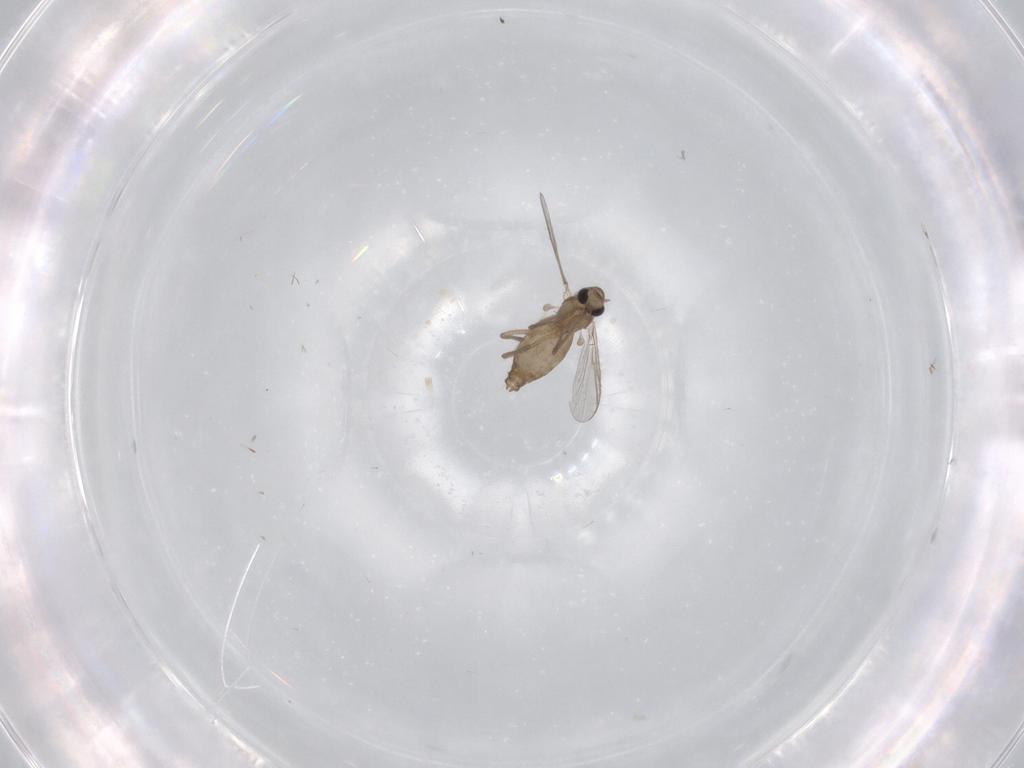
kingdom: Animalia
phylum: Arthropoda
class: Insecta
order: Diptera
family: Chironomidae
